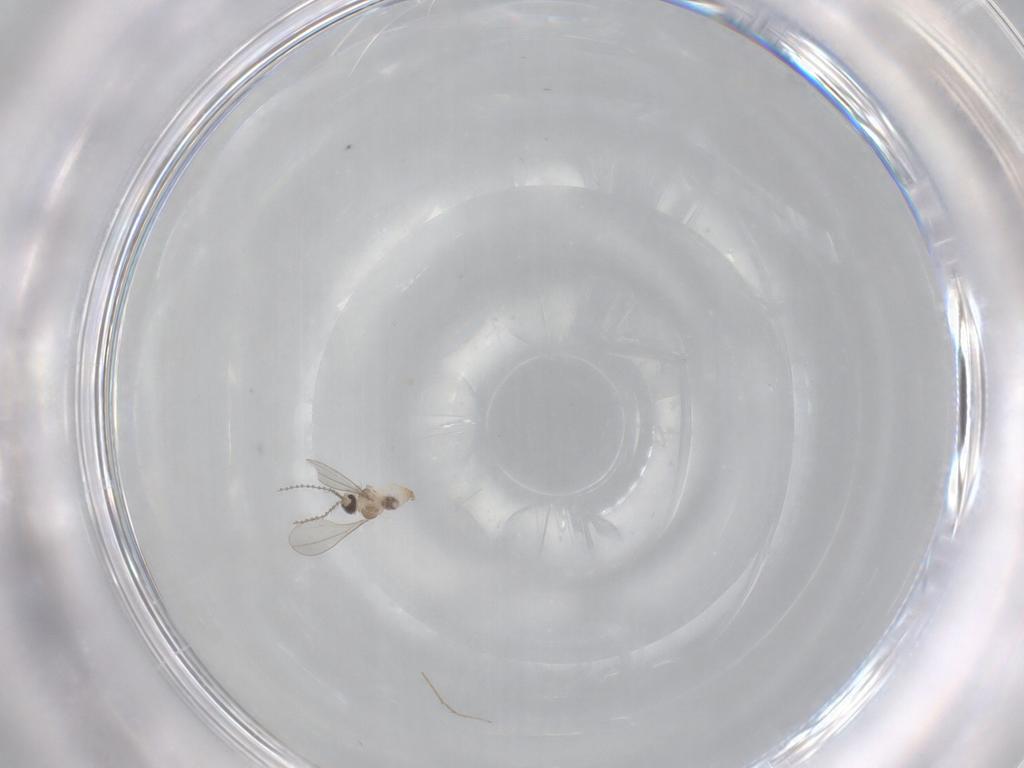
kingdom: Animalia
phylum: Arthropoda
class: Insecta
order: Diptera
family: Cecidomyiidae
